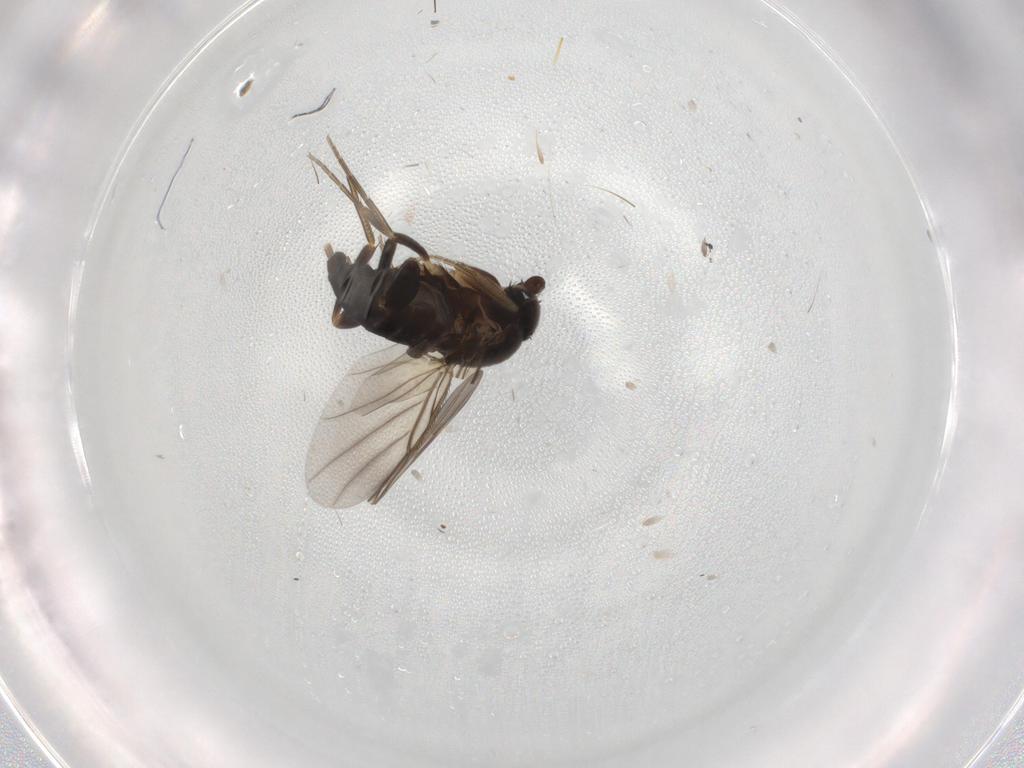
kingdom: Animalia
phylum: Arthropoda
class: Insecta
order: Diptera
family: Phoridae
